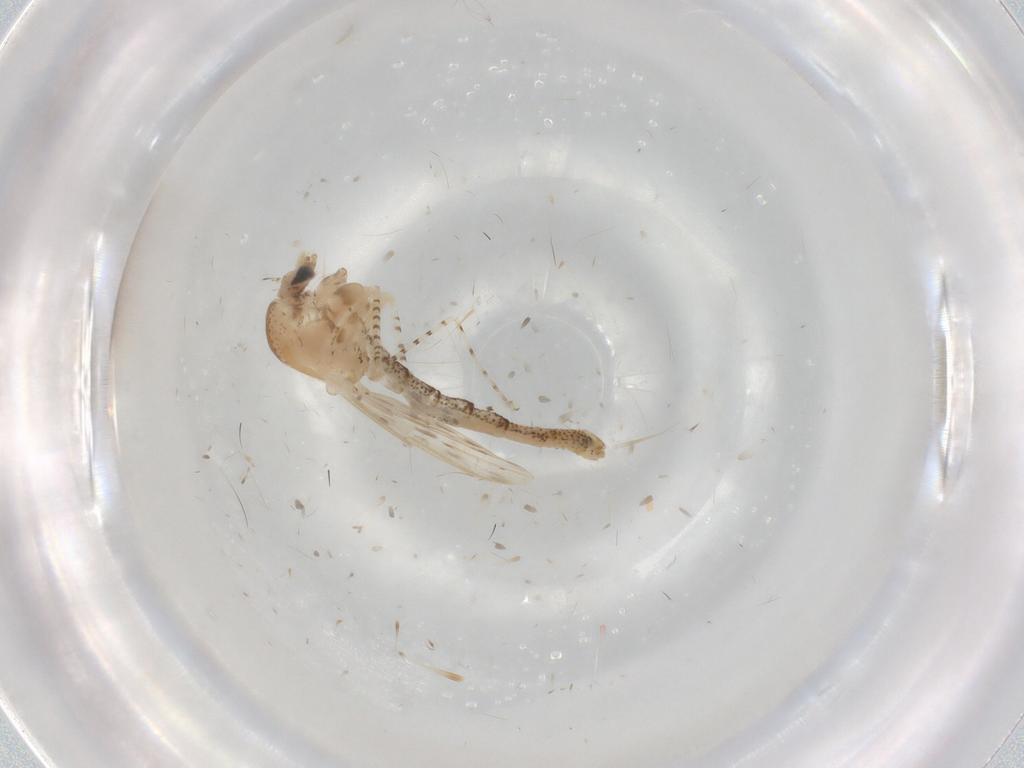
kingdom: Animalia
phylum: Arthropoda
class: Insecta
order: Diptera
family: Chaoboridae
